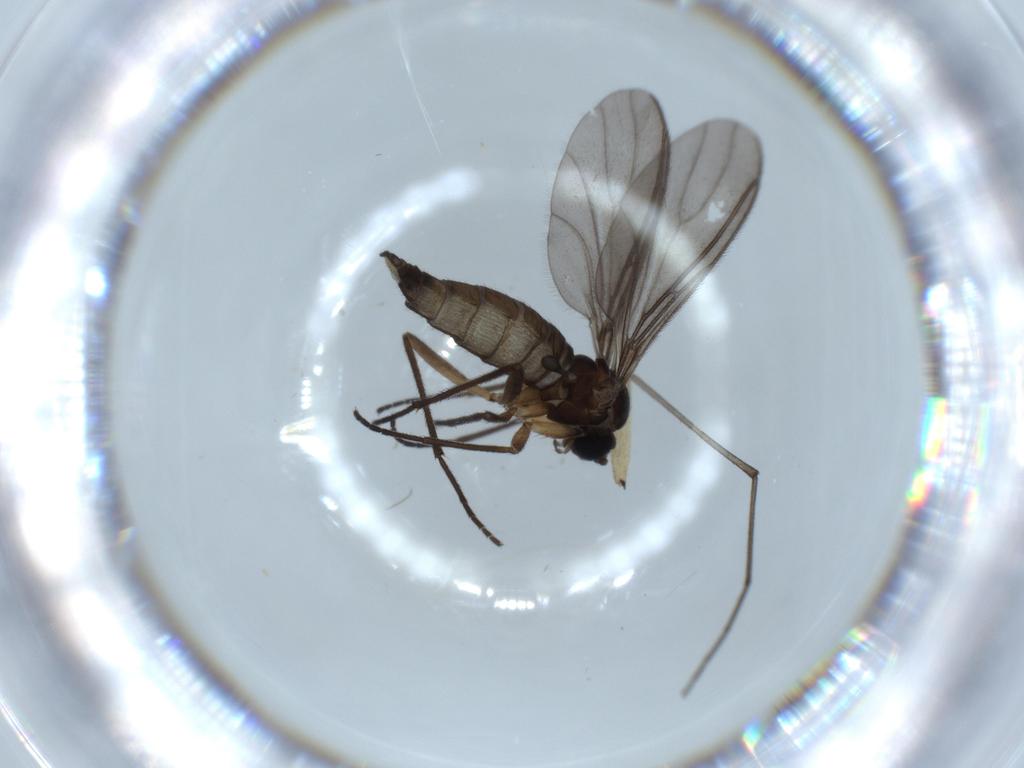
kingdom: Animalia
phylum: Arthropoda
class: Insecta
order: Diptera
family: Sciaridae
